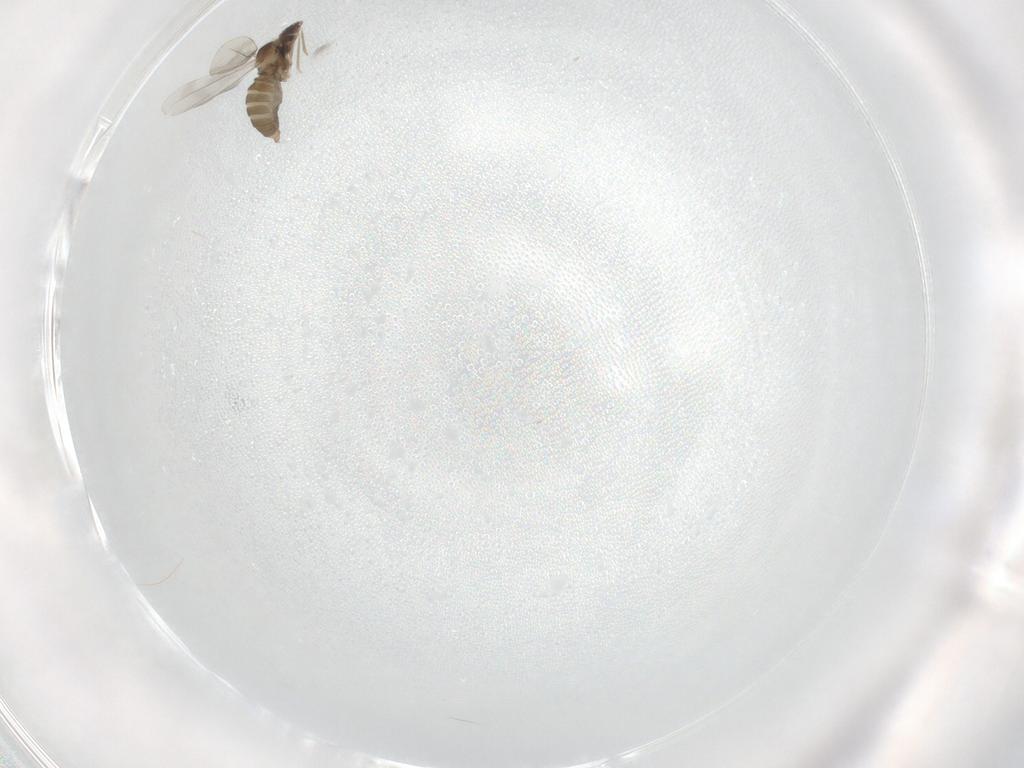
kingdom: Animalia
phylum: Arthropoda
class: Insecta
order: Diptera
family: Cecidomyiidae
